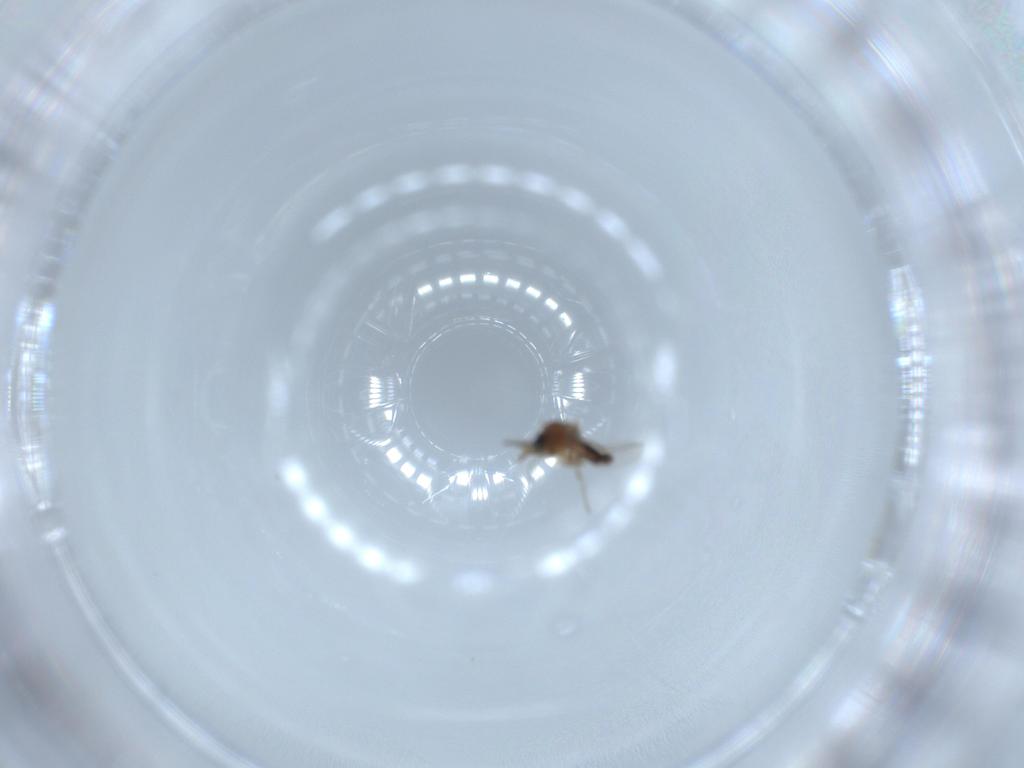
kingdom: Animalia
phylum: Arthropoda
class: Insecta
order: Diptera
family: Ceratopogonidae
